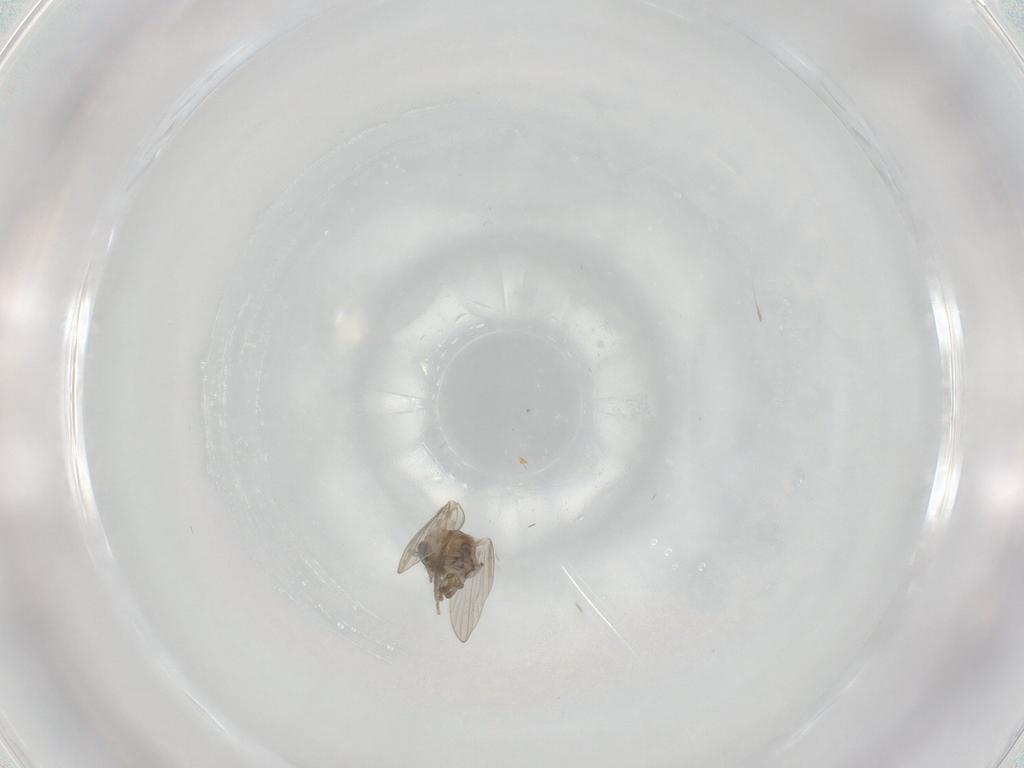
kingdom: Animalia
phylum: Arthropoda
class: Insecta
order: Diptera
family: Psychodidae
